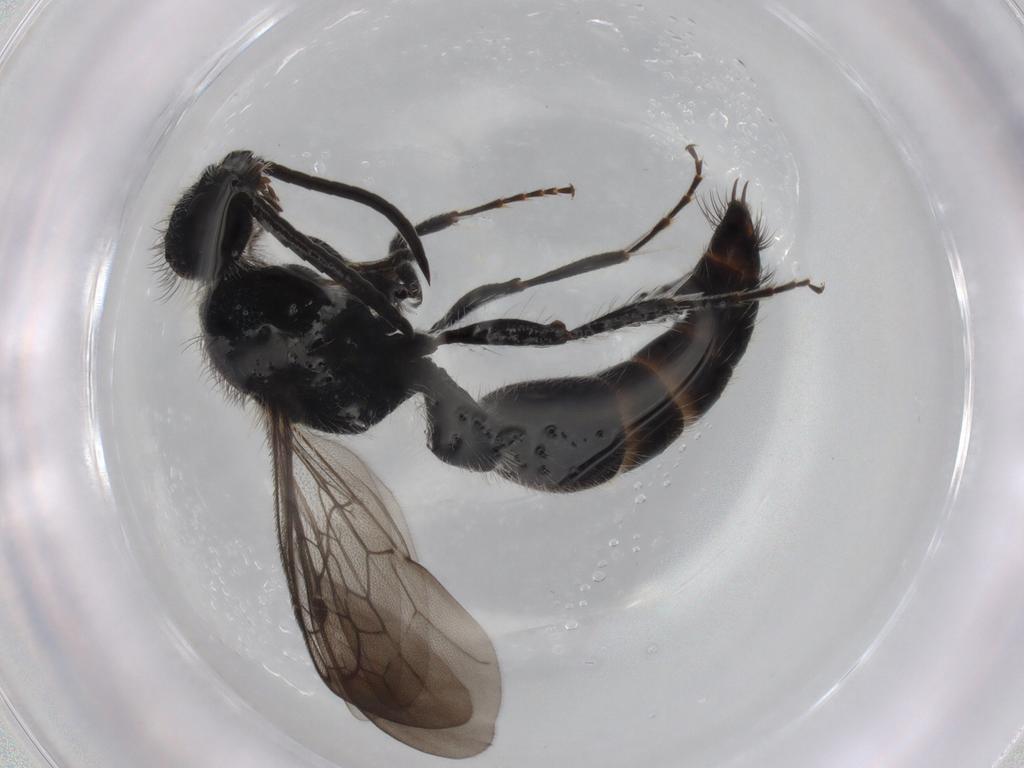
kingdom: Animalia
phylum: Arthropoda
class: Insecta
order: Hymenoptera
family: Mutillidae
